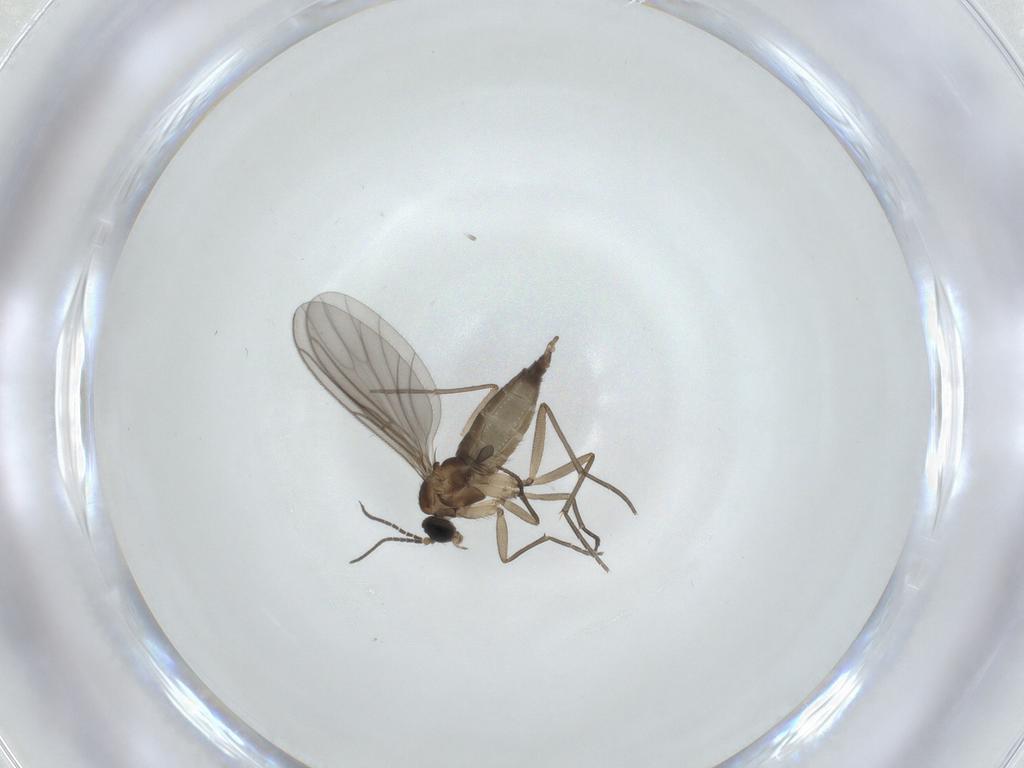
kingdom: Animalia
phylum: Arthropoda
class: Insecta
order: Diptera
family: Sciaridae
